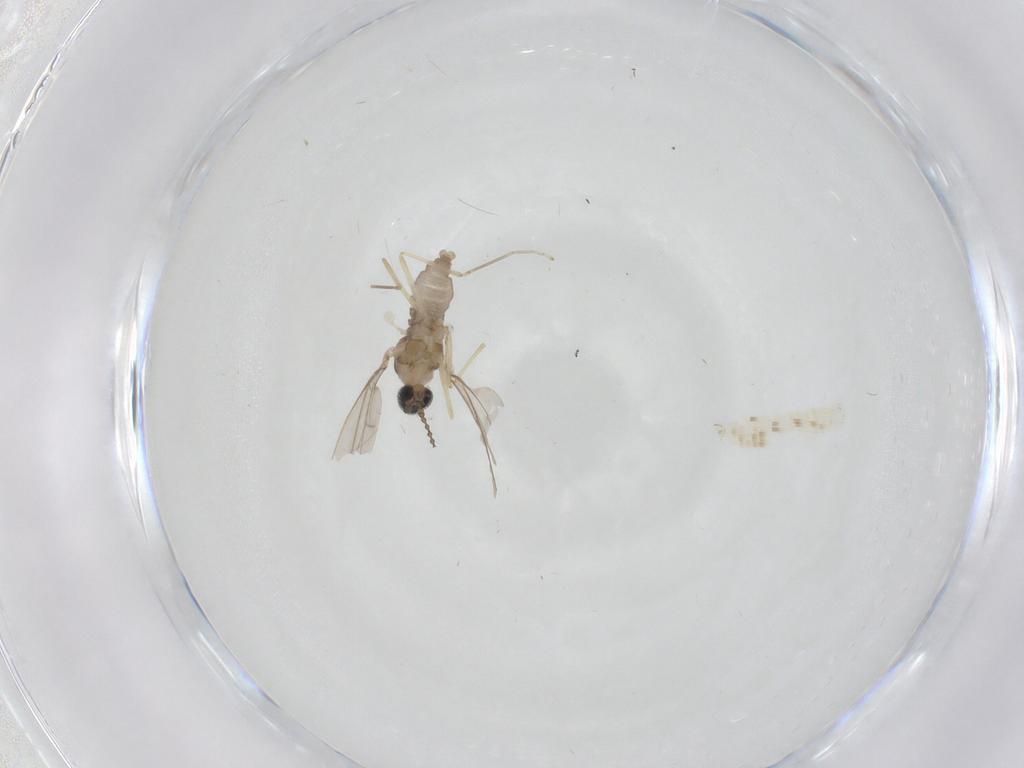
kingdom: Animalia
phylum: Arthropoda
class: Insecta
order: Diptera
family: Cecidomyiidae
